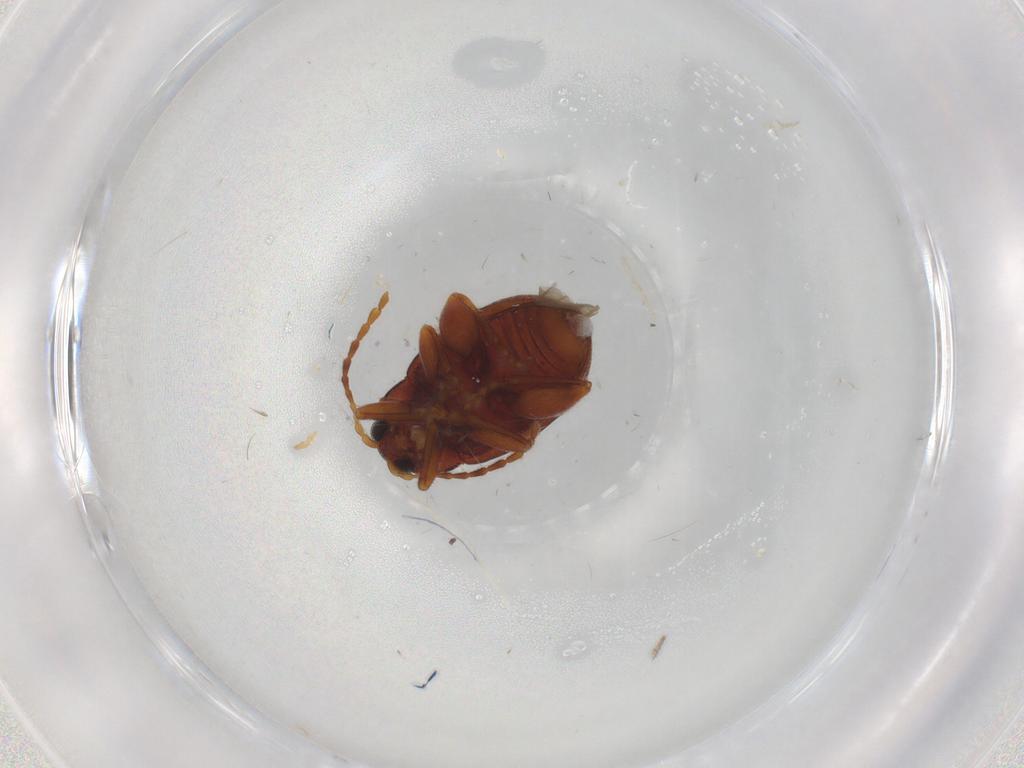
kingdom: Animalia
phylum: Arthropoda
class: Insecta
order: Coleoptera
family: Chrysomelidae
